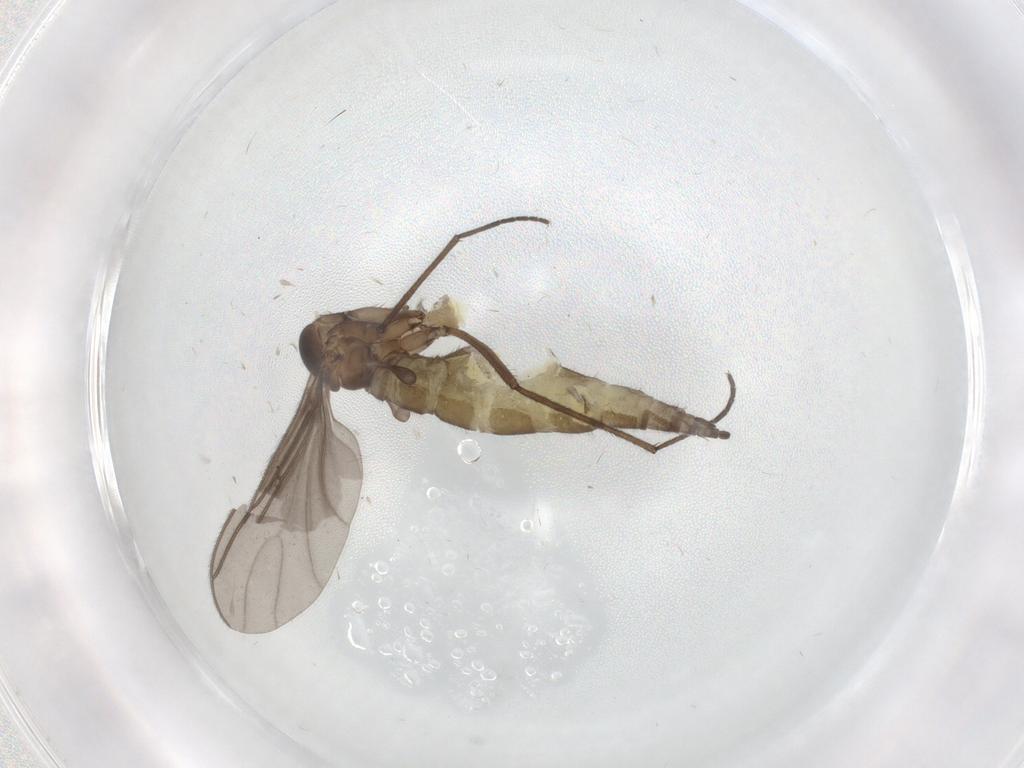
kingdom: Animalia
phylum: Arthropoda
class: Insecta
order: Diptera
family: Sciaridae
